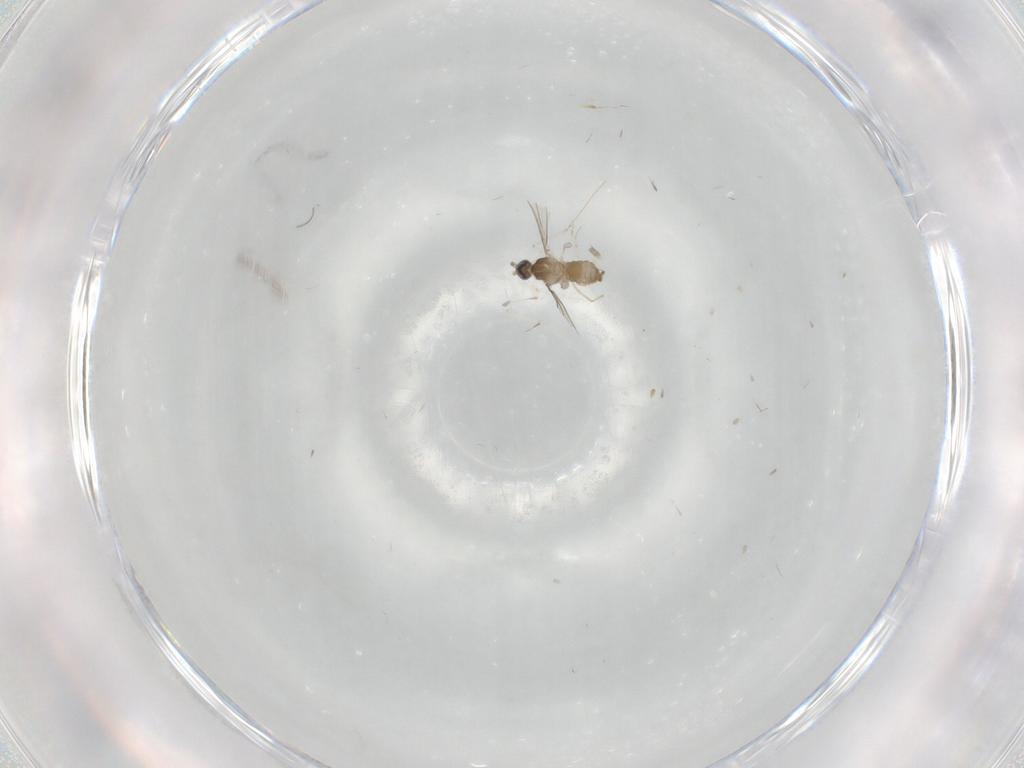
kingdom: Animalia
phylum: Arthropoda
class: Insecta
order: Diptera
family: Cecidomyiidae
